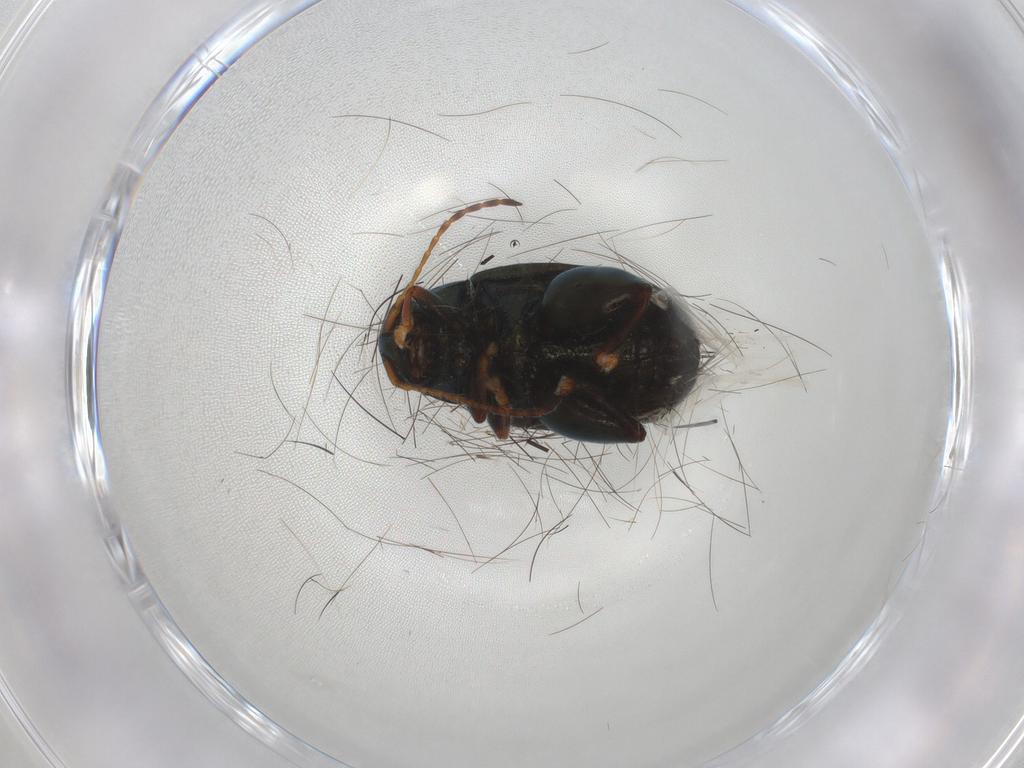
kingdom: Animalia
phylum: Arthropoda
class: Insecta
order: Coleoptera
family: Chrysomelidae
